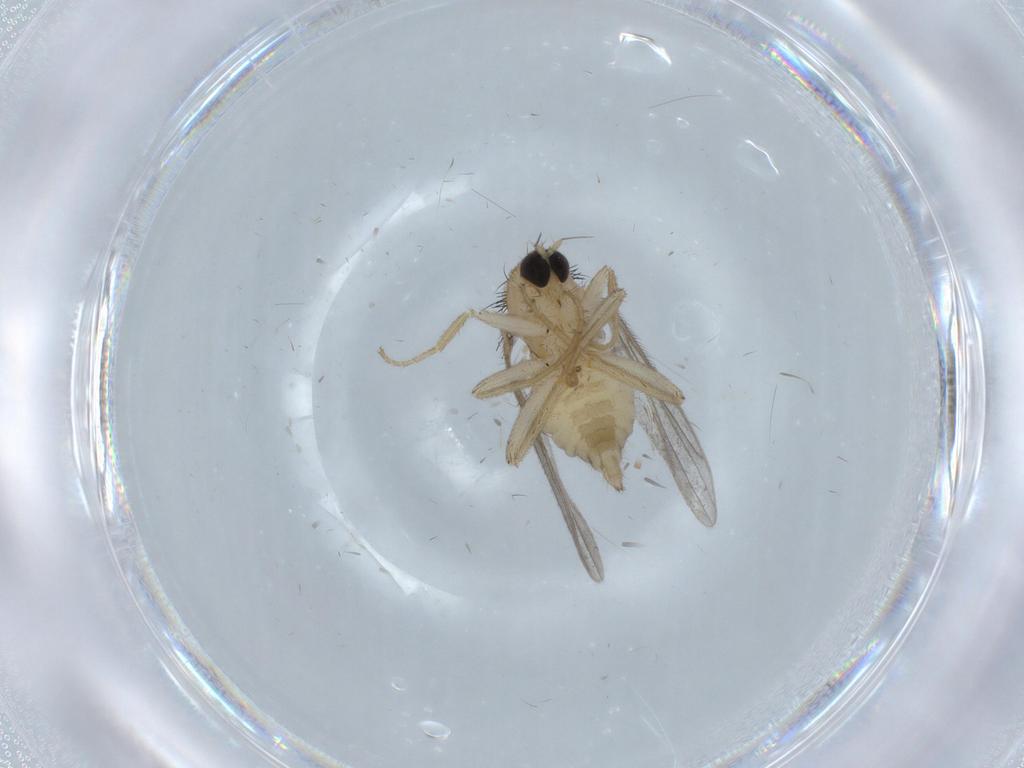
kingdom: Animalia
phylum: Arthropoda
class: Insecta
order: Diptera
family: Hybotidae
